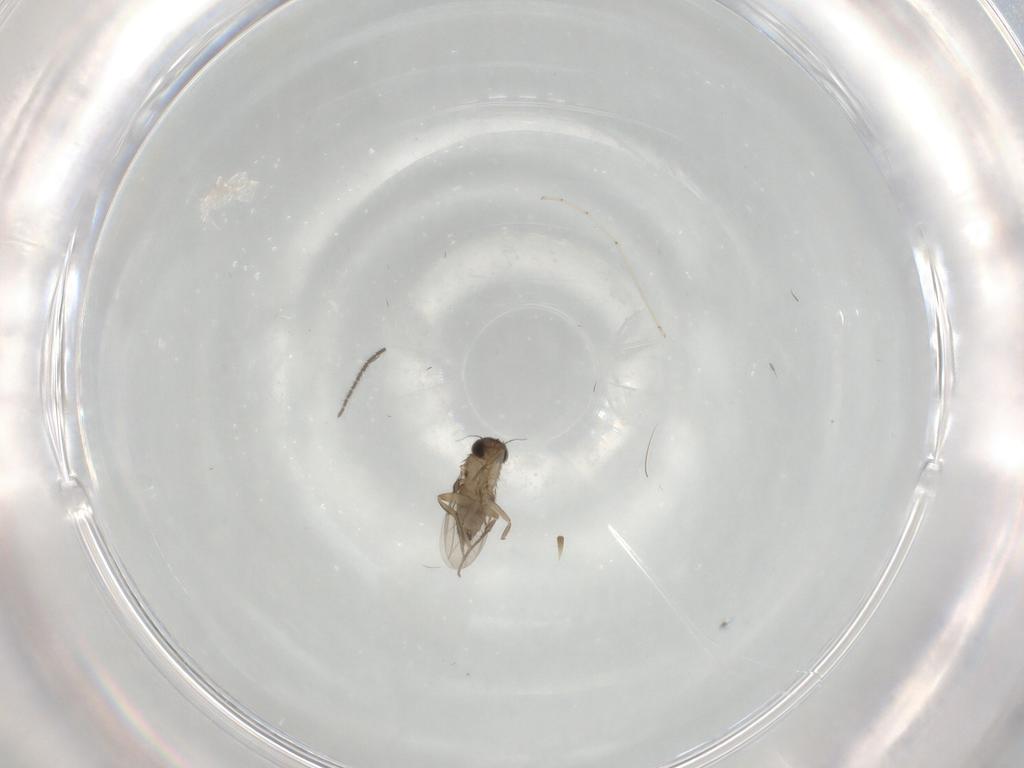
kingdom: Animalia
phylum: Arthropoda
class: Insecta
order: Diptera
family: Phoridae
